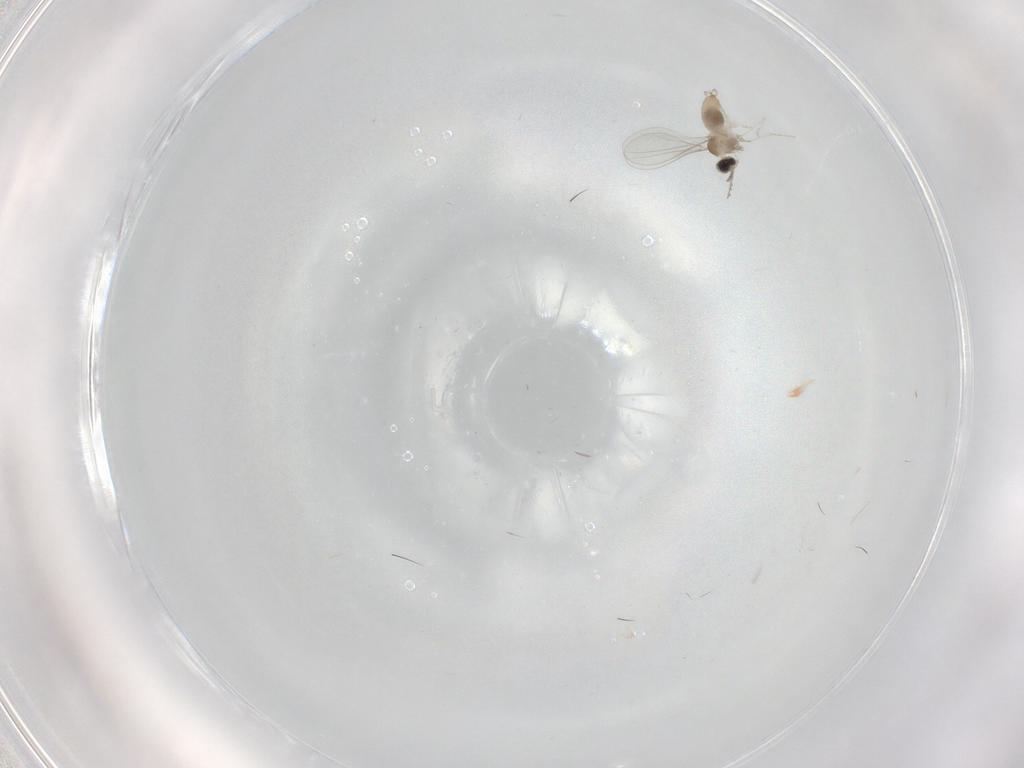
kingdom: Animalia
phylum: Arthropoda
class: Insecta
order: Diptera
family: Cecidomyiidae
